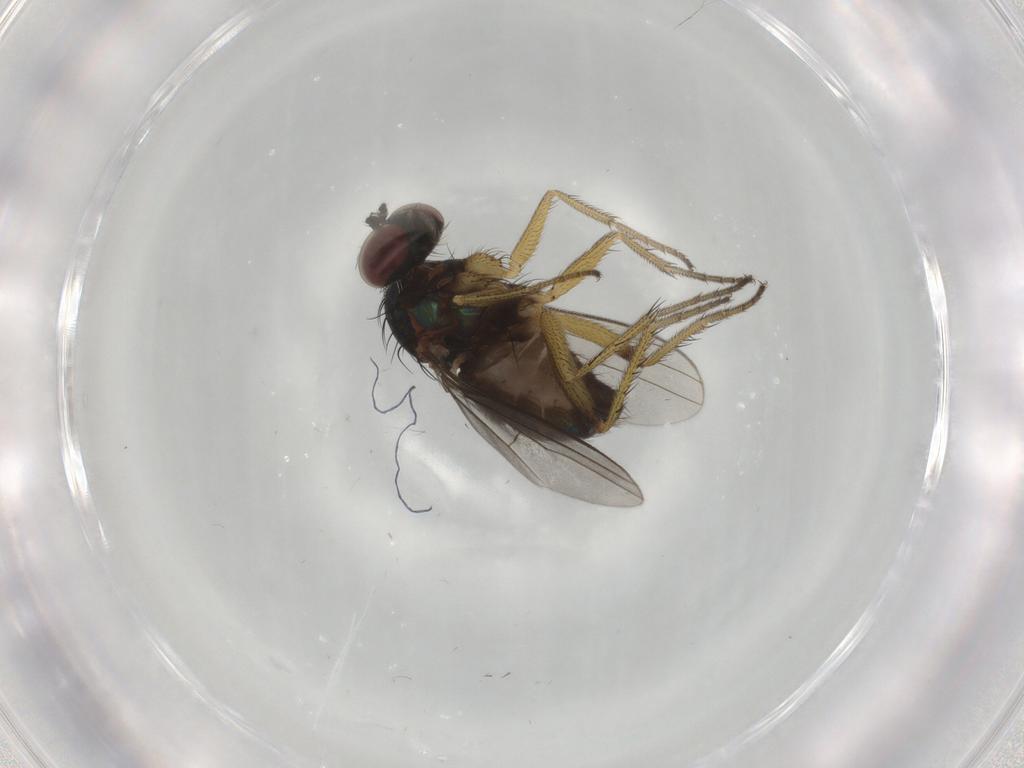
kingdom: Animalia
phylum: Arthropoda
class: Insecta
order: Diptera
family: Dolichopodidae
